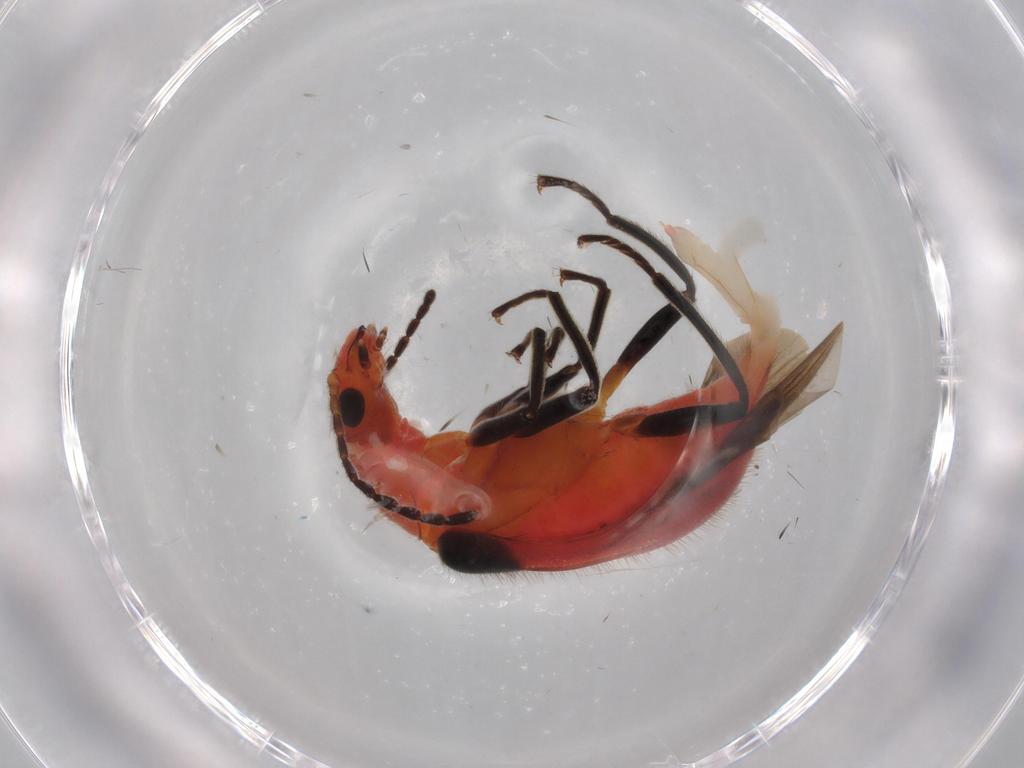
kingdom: Animalia
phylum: Arthropoda
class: Insecta
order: Coleoptera
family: Melyridae
